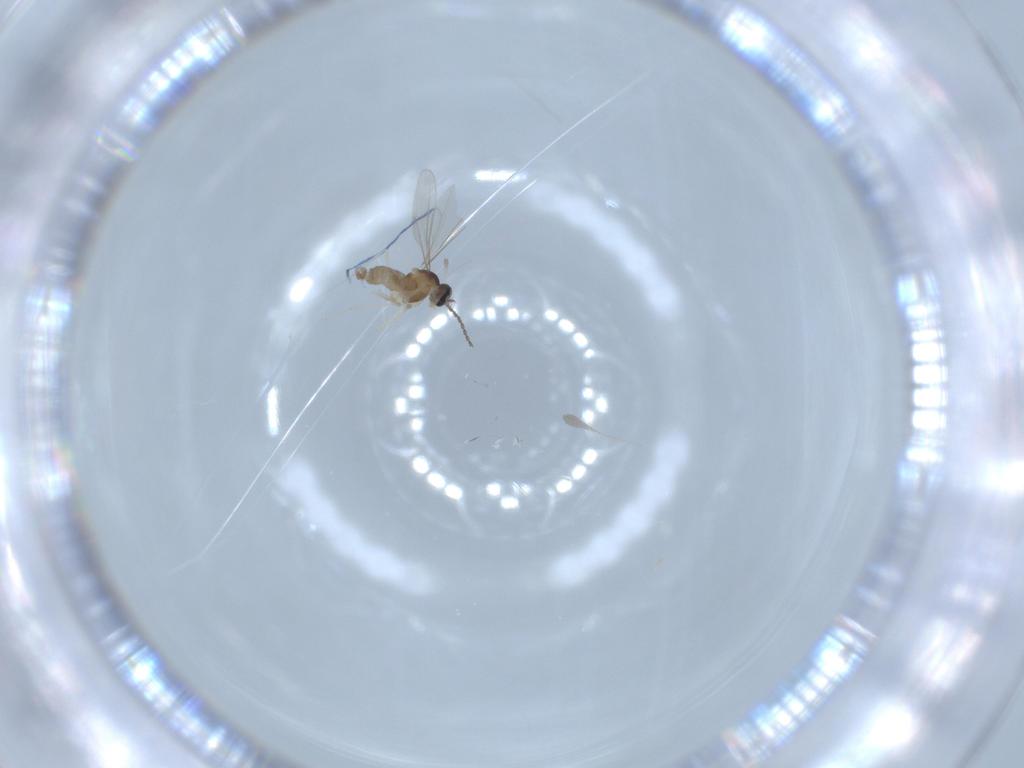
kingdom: Animalia
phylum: Arthropoda
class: Insecta
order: Diptera
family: Cecidomyiidae
